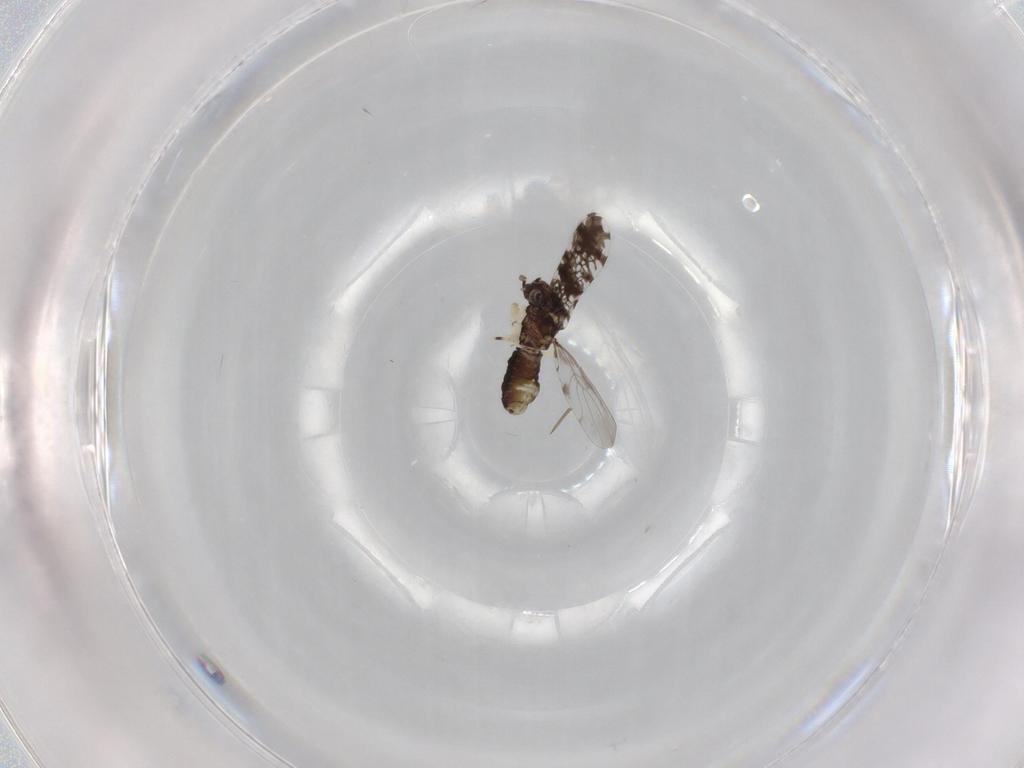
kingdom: Animalia
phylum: Arthropoda
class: Insecta
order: Psocodea
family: Psoquillidae
